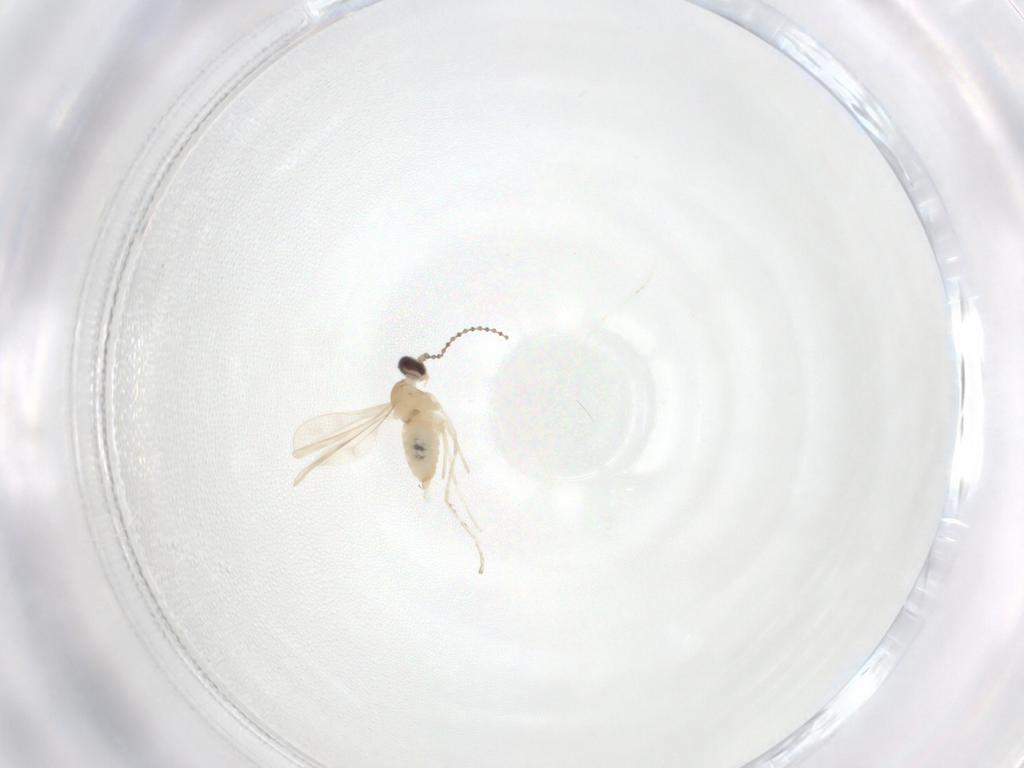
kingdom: Animalia
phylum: Arthropoda
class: Insecta
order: Diptera
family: Cecidomyiidae
